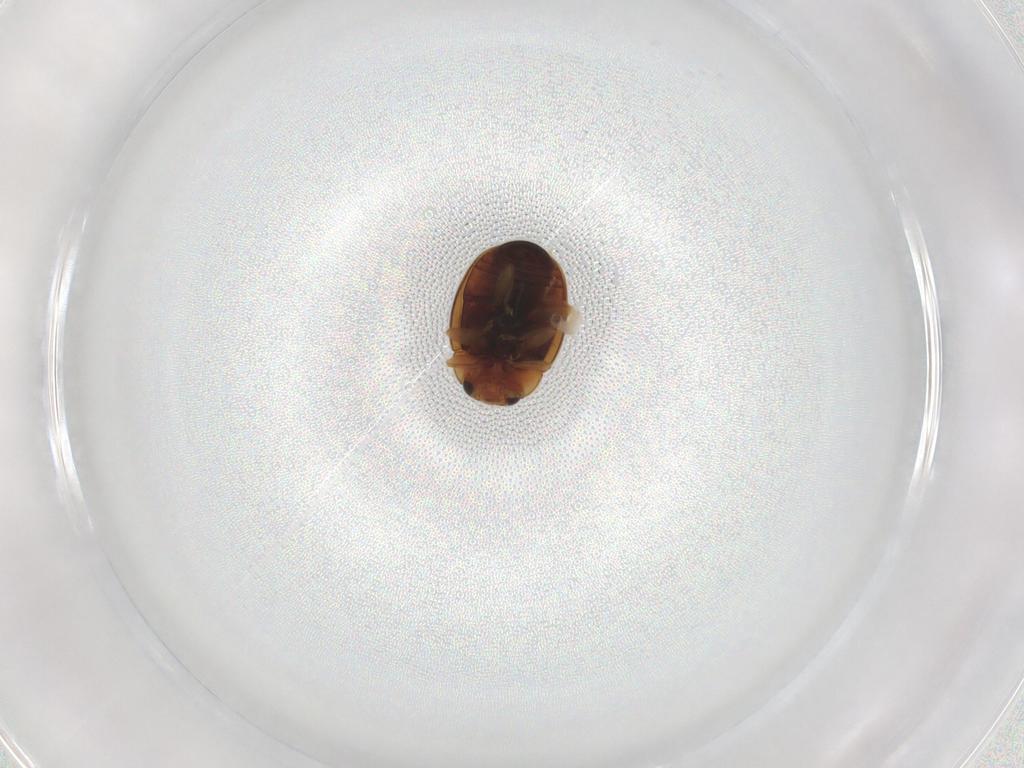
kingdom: Animalia
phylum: Arthropoda
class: Insecta
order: Coleoptera
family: Coccinellidae
